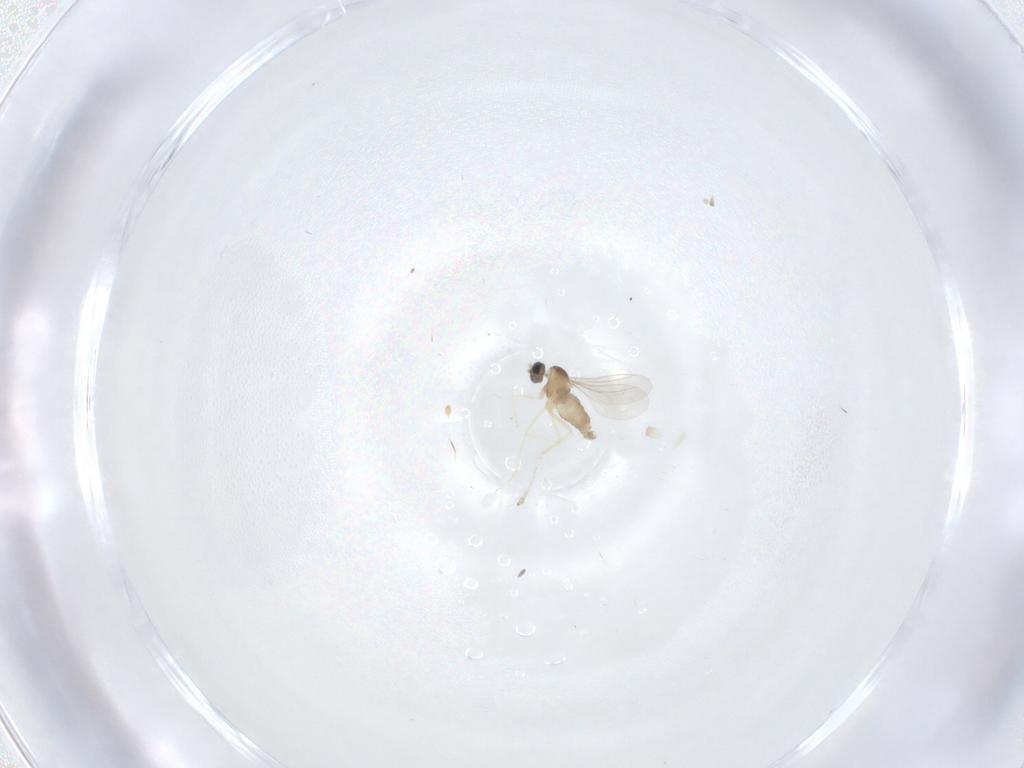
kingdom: Animalia
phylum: Arthropoda
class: Insecta
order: Diptera
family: Cecidomyiidae
